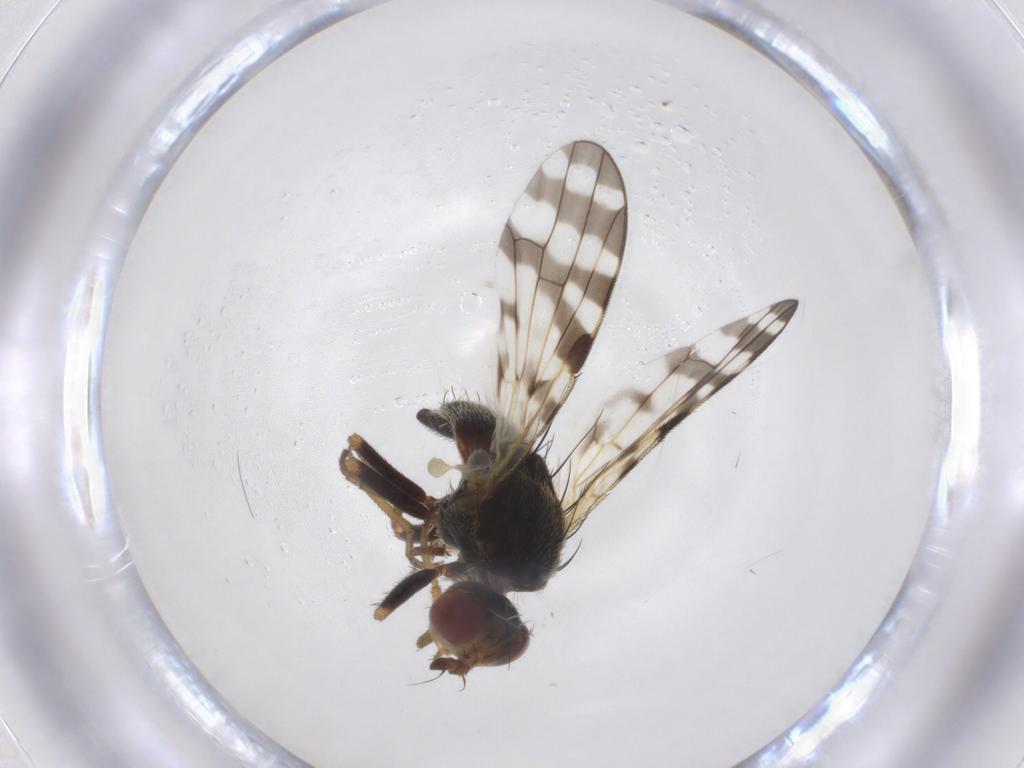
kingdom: Animalia
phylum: Arthropoda
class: Insecta
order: Diptera
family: Tephritidae
